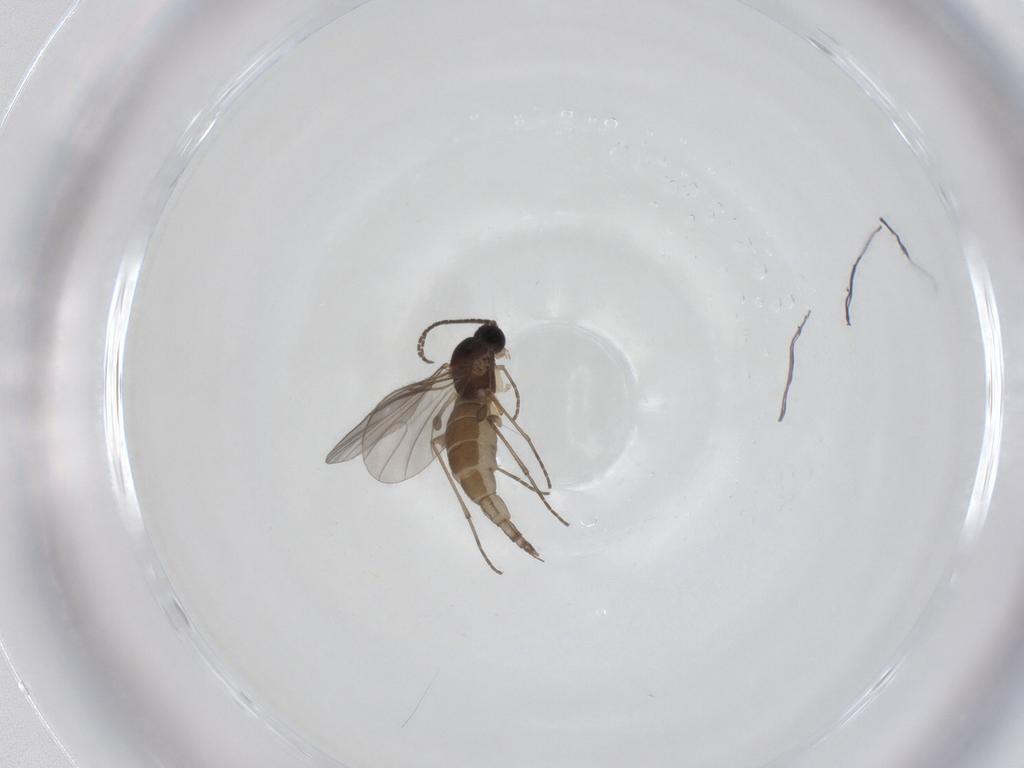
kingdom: Animalia
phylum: Arthropoda
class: Insecta
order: Diptera
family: Sciaridae
